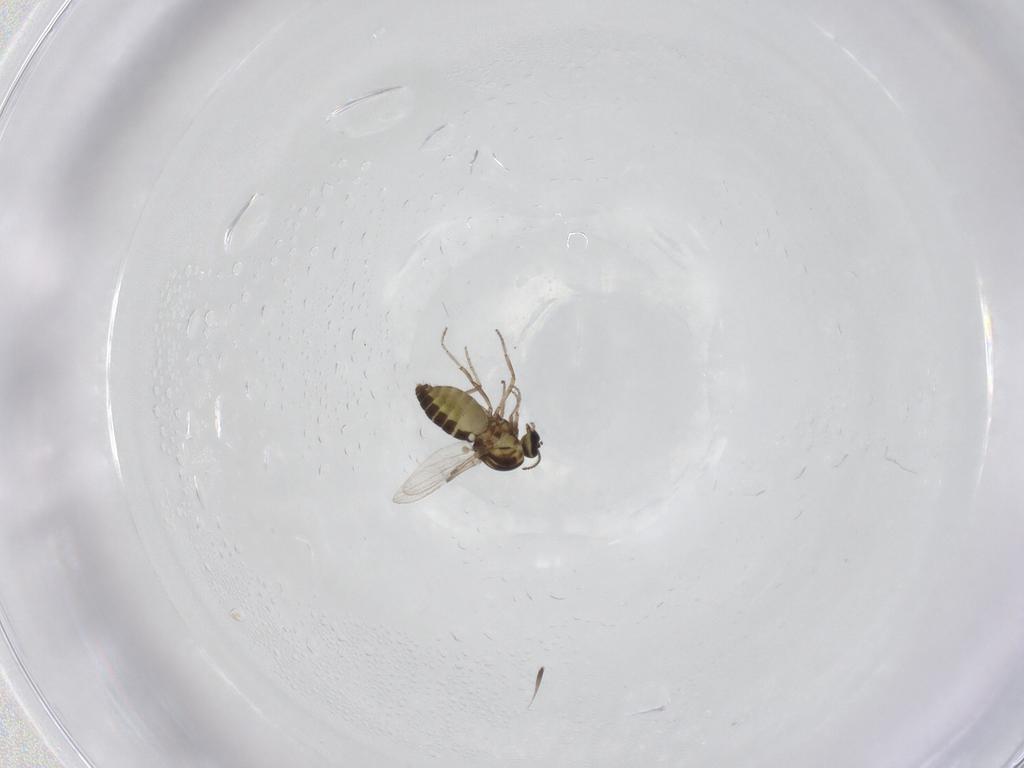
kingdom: Animalia
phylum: Arthropoda
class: Insecta
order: Diptera
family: Ceratopogonidae
